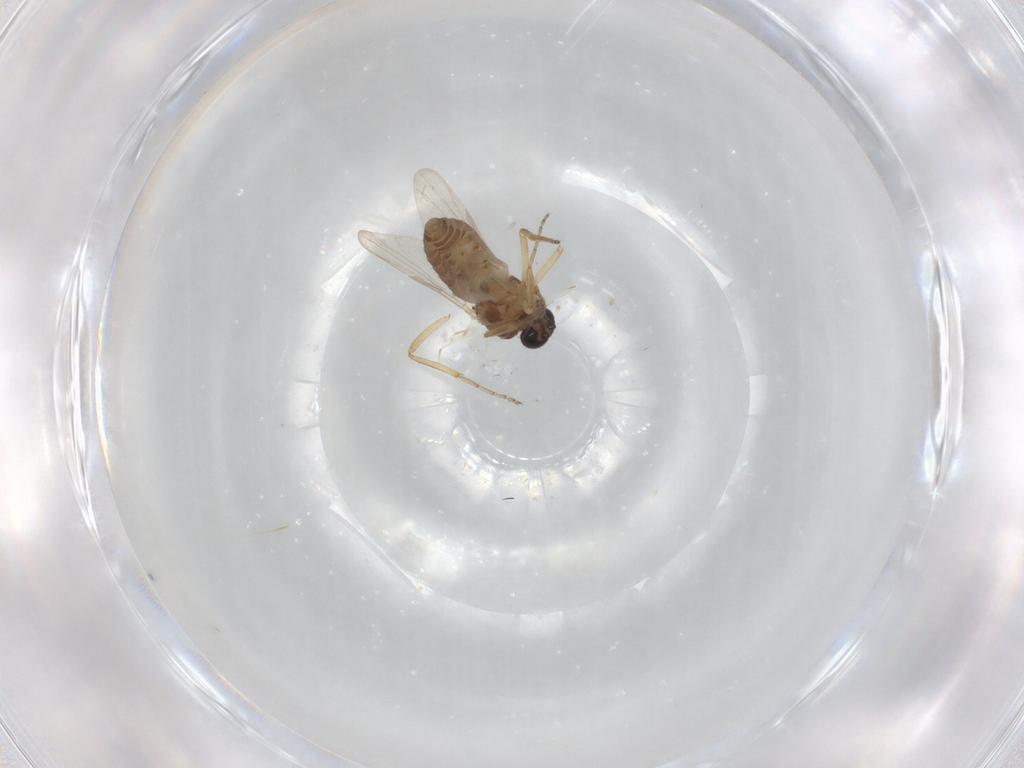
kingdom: Animalia
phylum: Arthropoda
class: Insecta
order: Diptera
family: Ceratopogonidae
